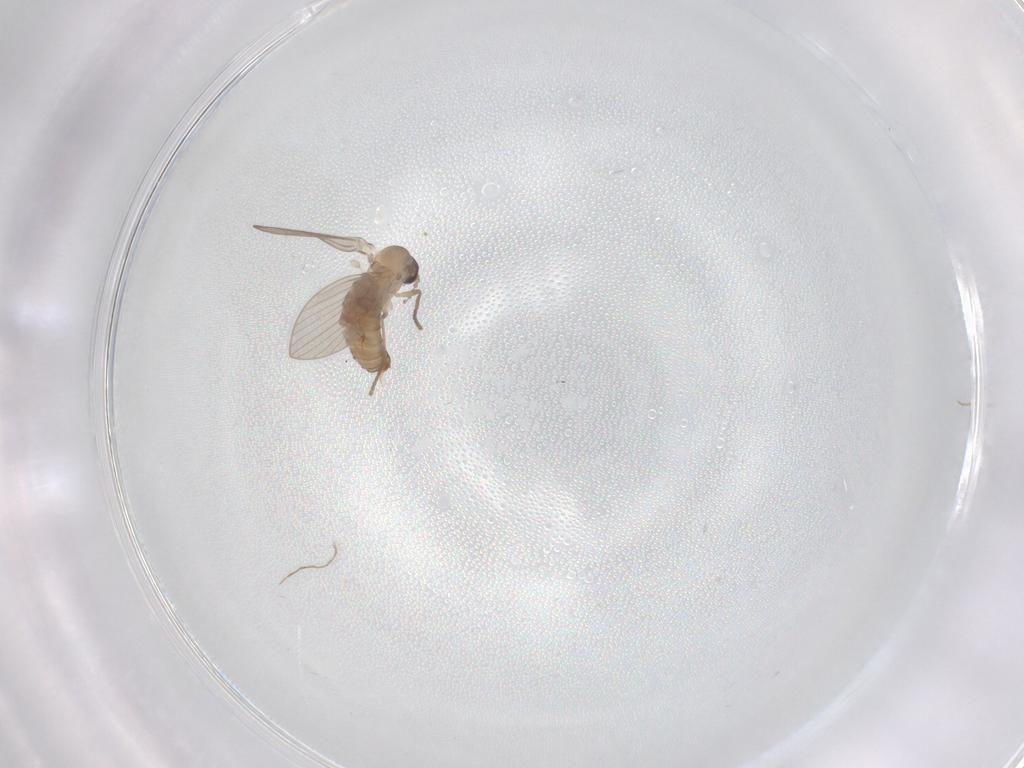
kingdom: Animalia
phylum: Arthropoda
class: Insecta
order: Diptera
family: Psychodidae
